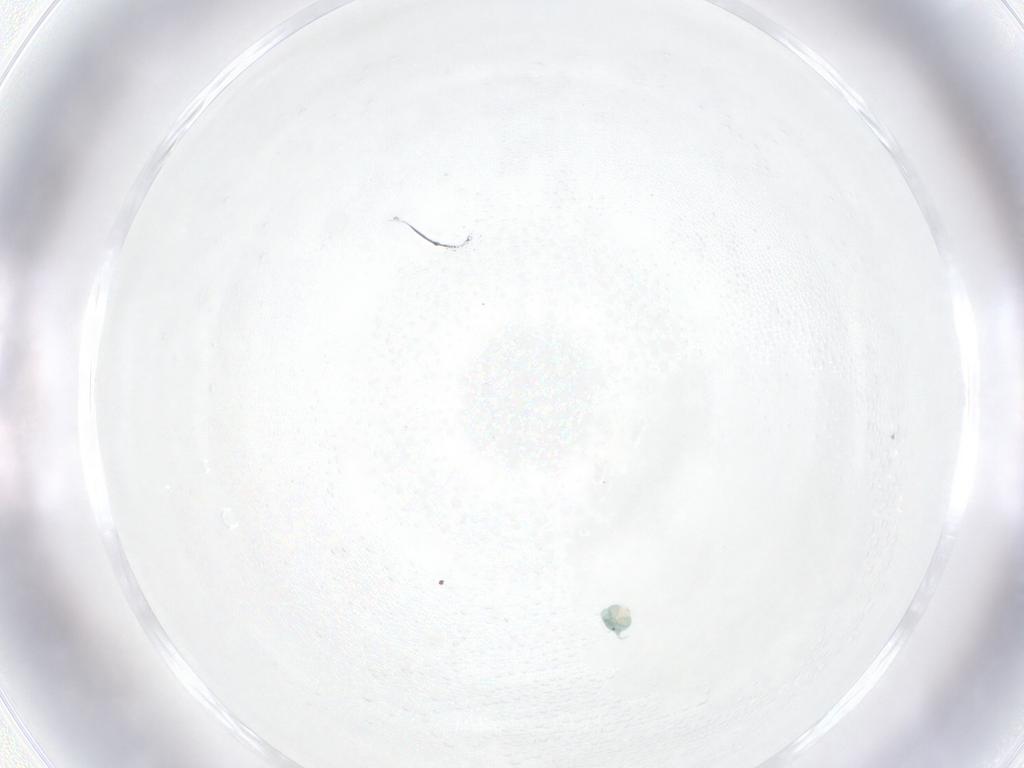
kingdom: Animalia
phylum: Arthropoda
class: Arachnida
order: Trombidiformes
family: Arrenuridae
